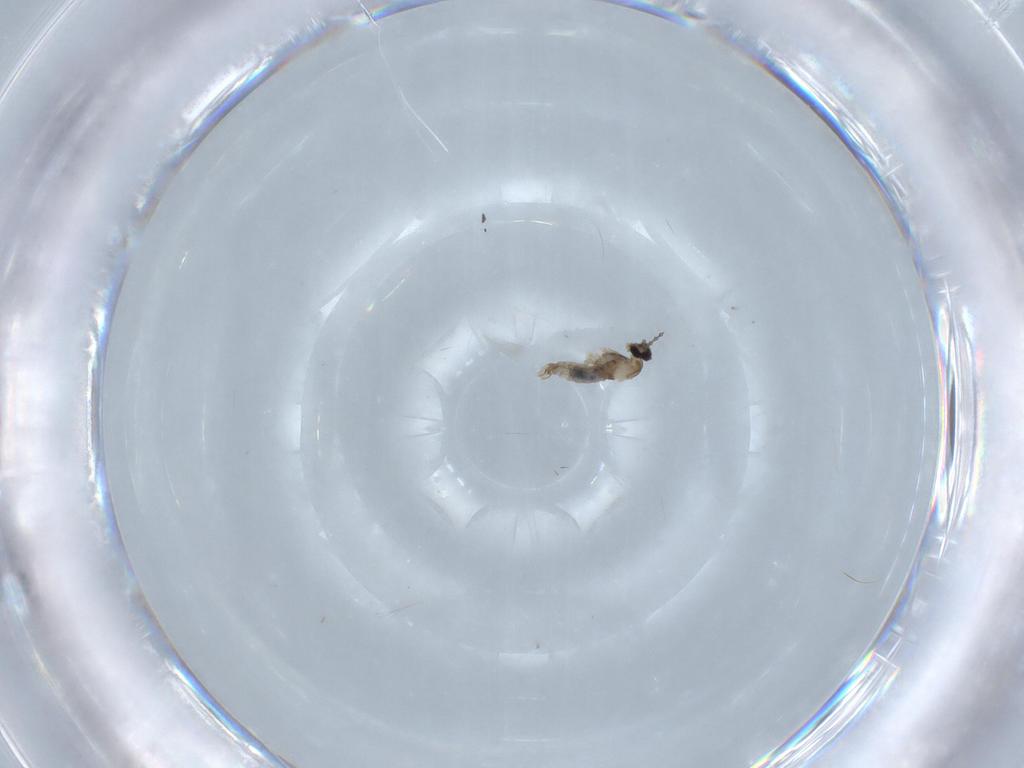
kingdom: Animalia
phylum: Arthropoda
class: Insecta
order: Diptera
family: Cecidomyiidae
